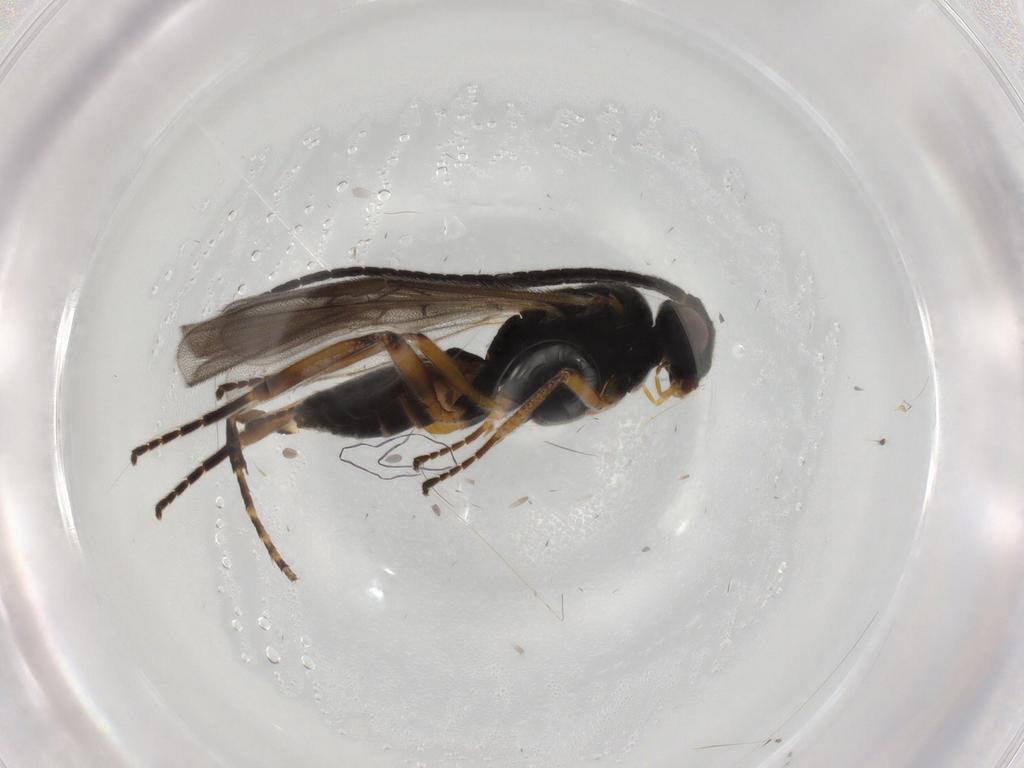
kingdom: Animalia
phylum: Arthropoda
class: Insecta
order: Hymenoptera
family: Braconidae
